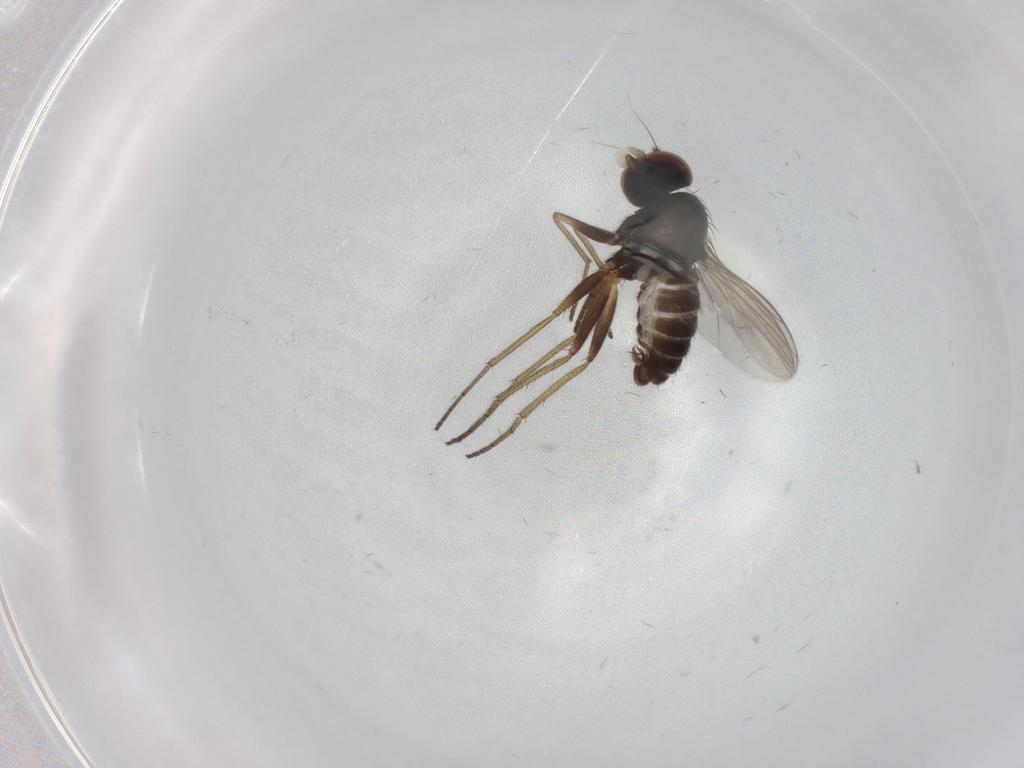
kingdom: Animalia
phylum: Arthropoda
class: Insecta
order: Diptera
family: Dolichopodidae
